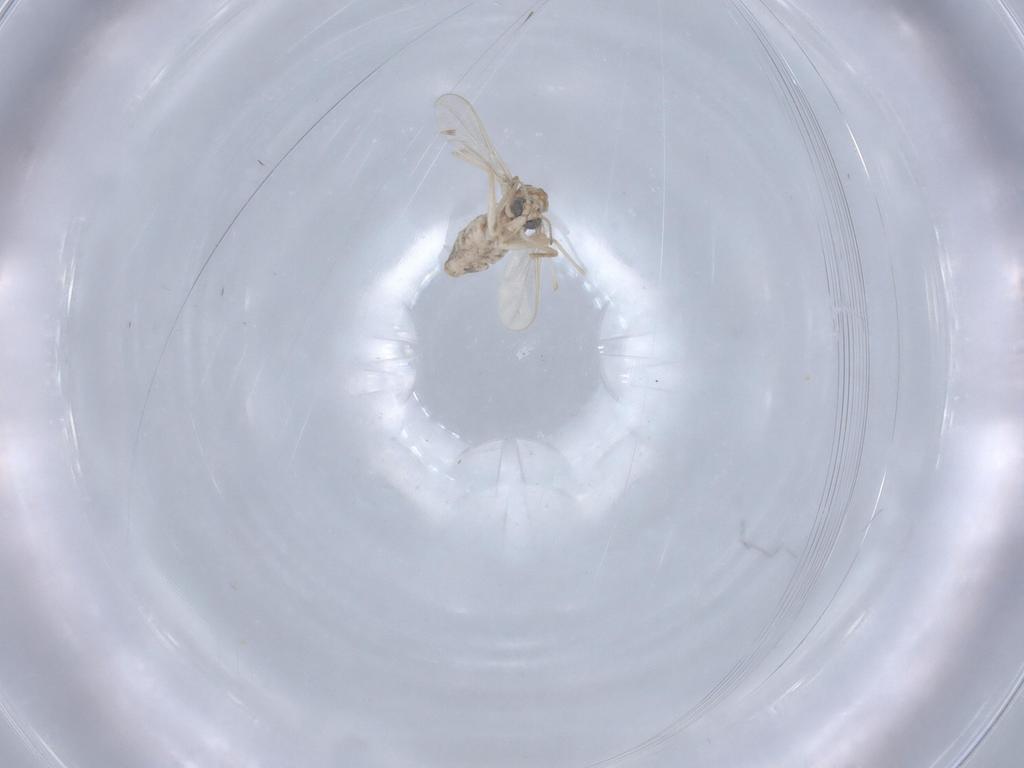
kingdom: Animalia
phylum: Arthropoda
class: Insecta
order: Diptera
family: Chironomidae
